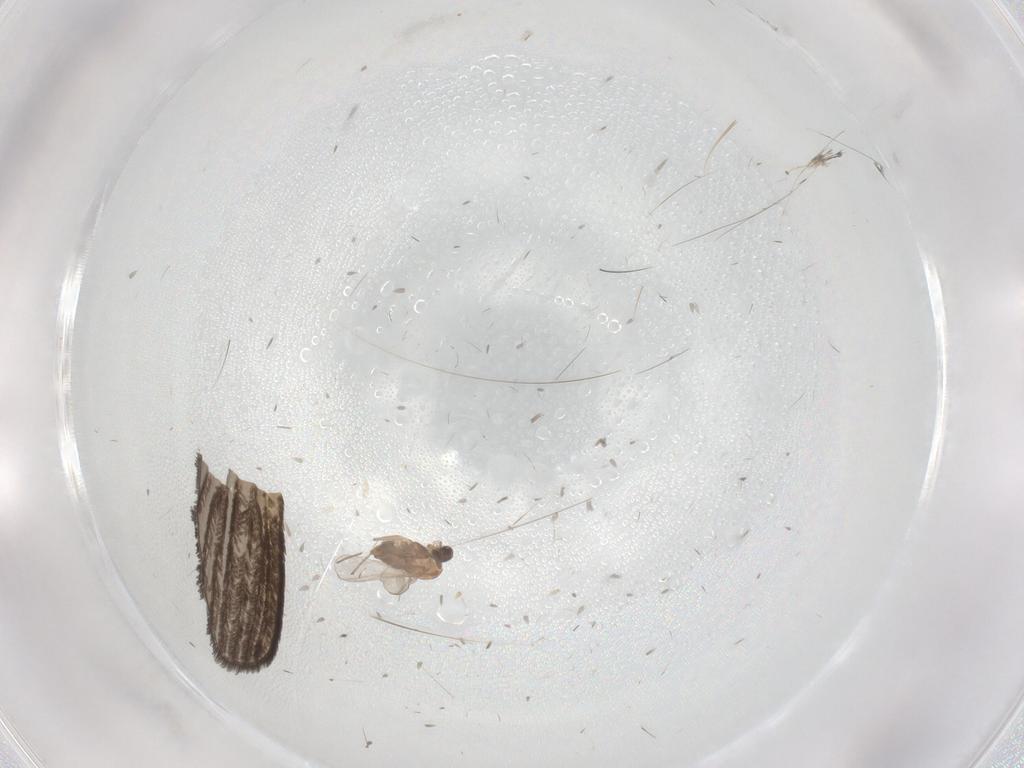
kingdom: Animalia
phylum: Arthropoda
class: Insecta
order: Diptera
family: Chironomidae
